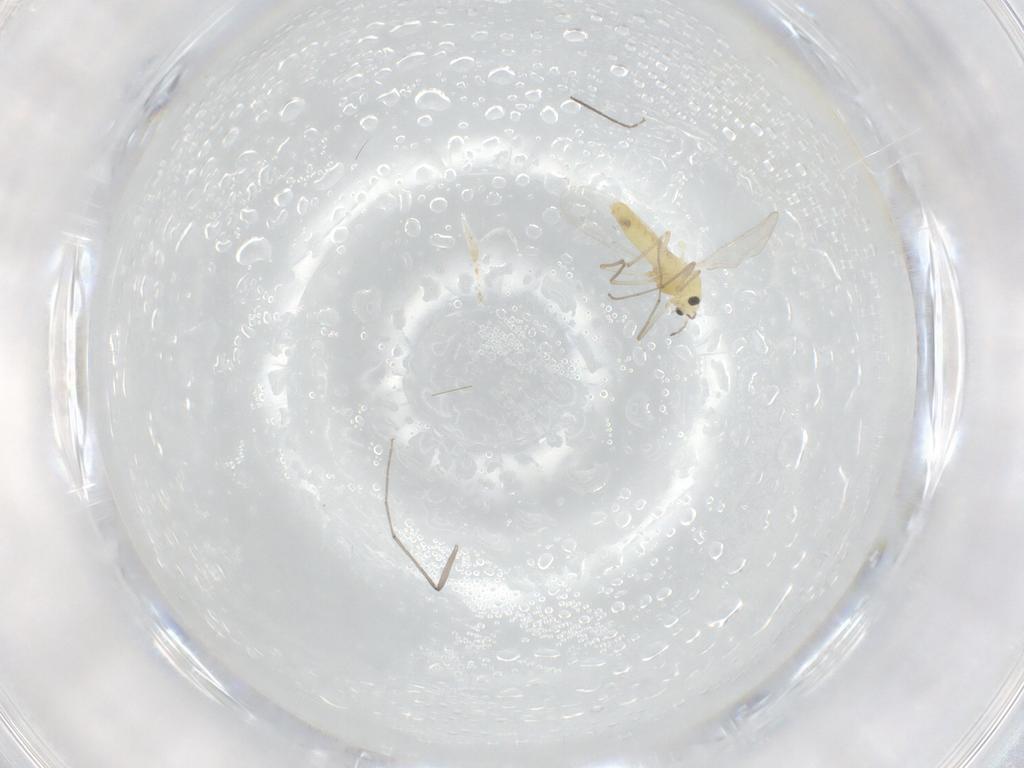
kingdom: Animalia
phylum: Arthropoda
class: Insecta
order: Diptera
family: Chironomidae
